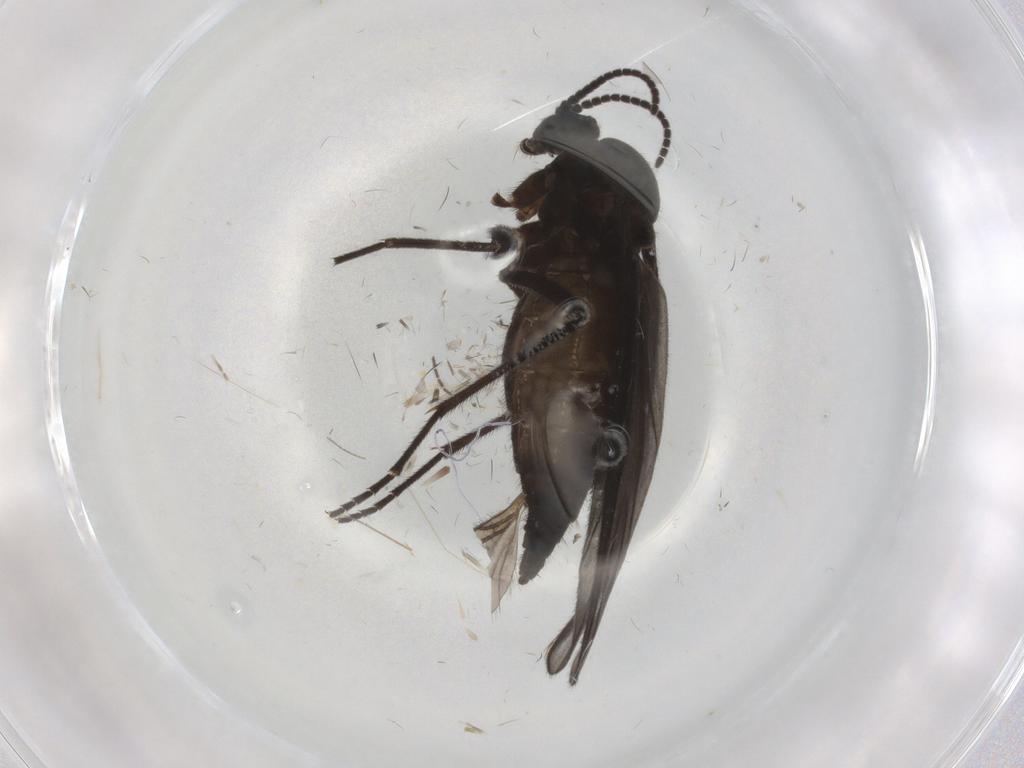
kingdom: Animalia
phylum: Arthropoda
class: Insecta
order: Diptera
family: Sciaridae
